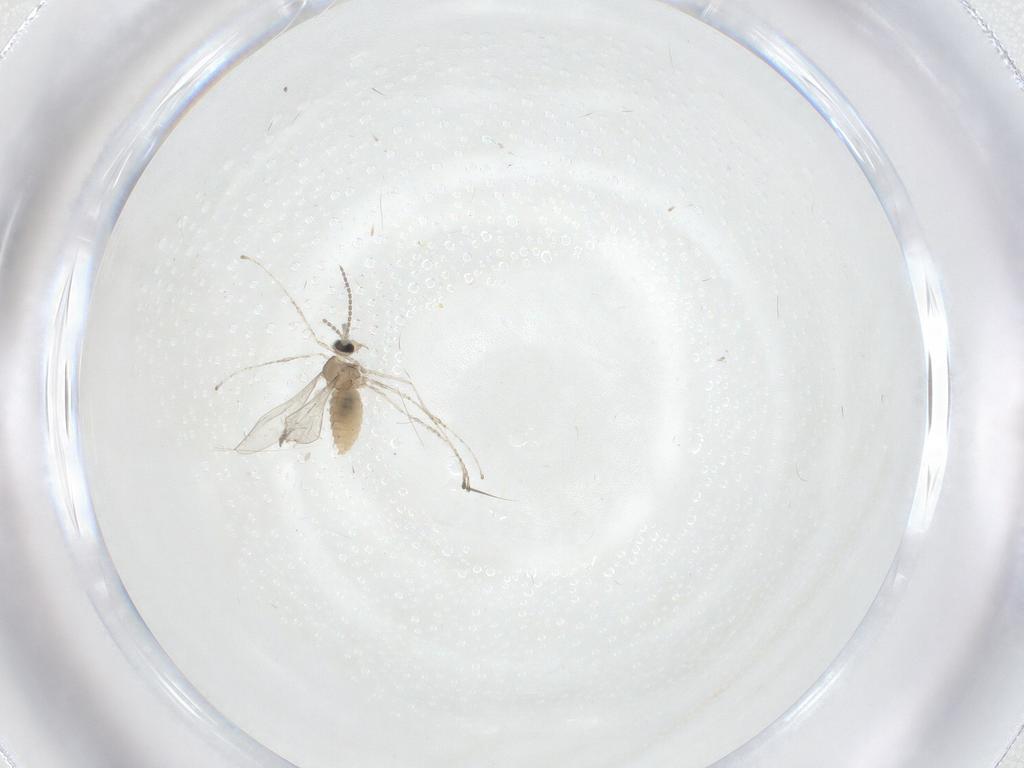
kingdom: Animalia
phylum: Arthropoda
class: Insecta
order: Diptera
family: Cecidomyiidae
